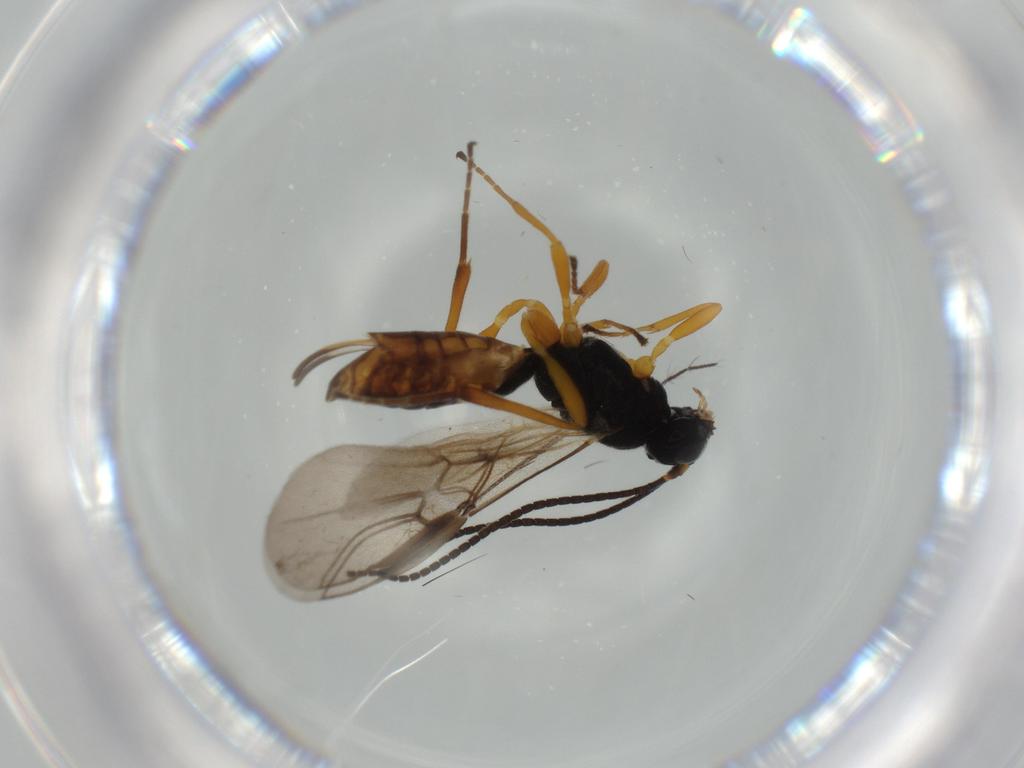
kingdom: Animalia
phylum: Arthropoda
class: Insecta
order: Hymenoptera
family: Braconidae
